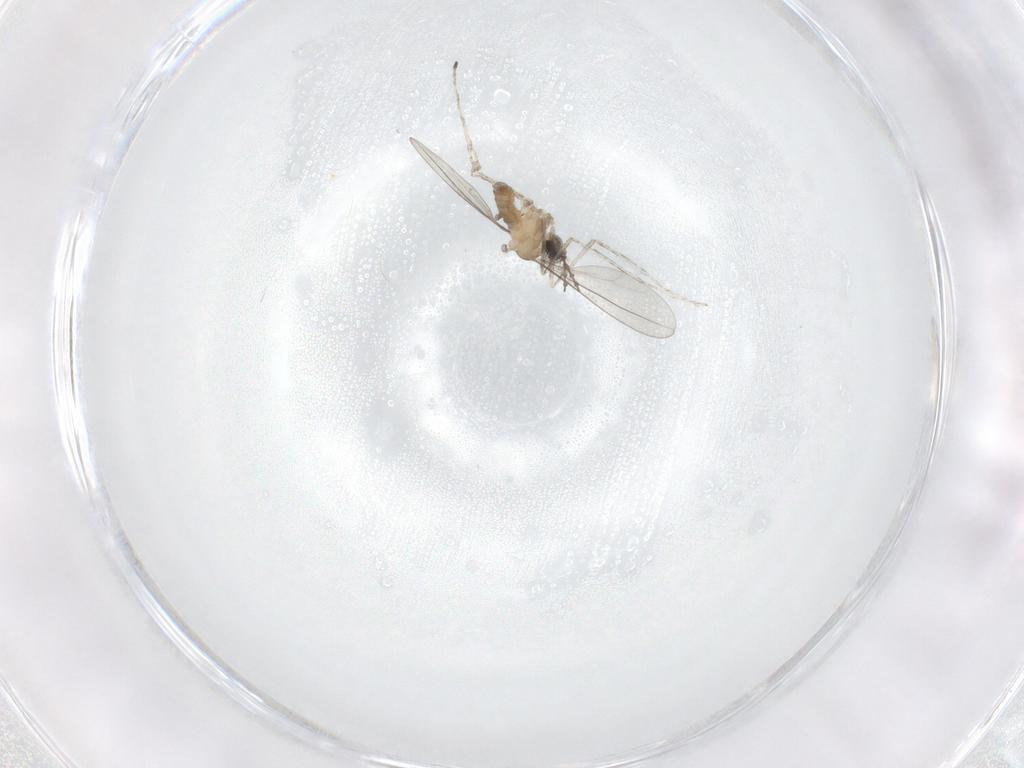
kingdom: Animalia
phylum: Arthropoda
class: Insecta
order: Diptera
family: Cecidomyiidae
